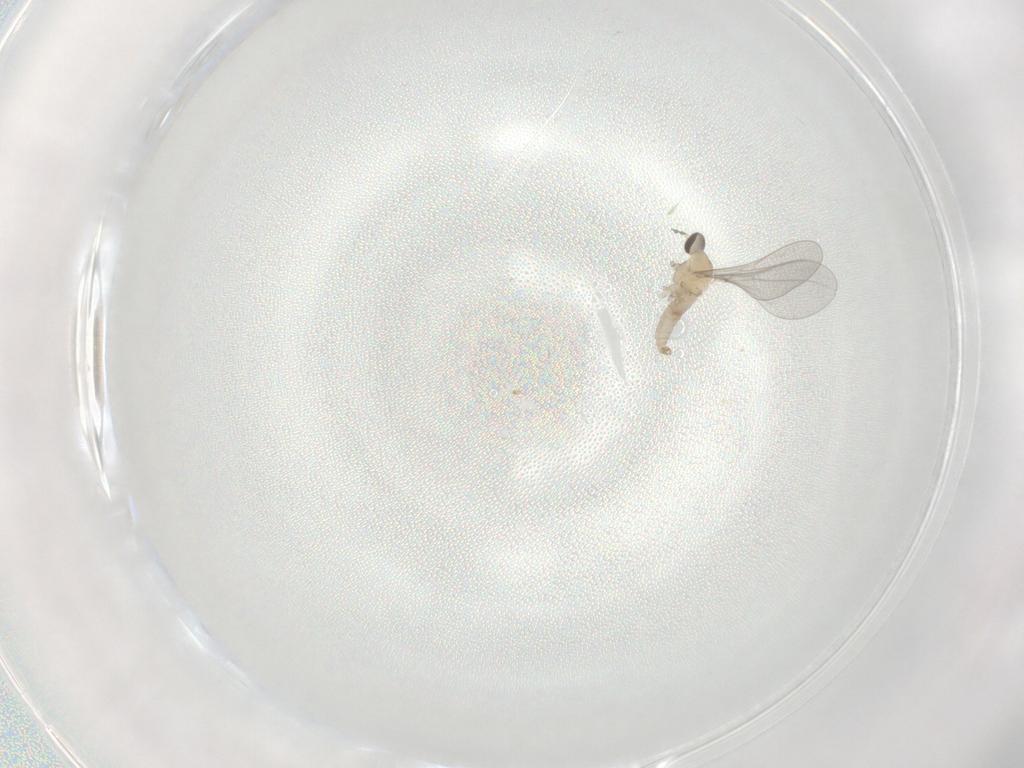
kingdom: Animalia
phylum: Arthropoda
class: Insecta
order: Diptera
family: Cecidomyiidae
